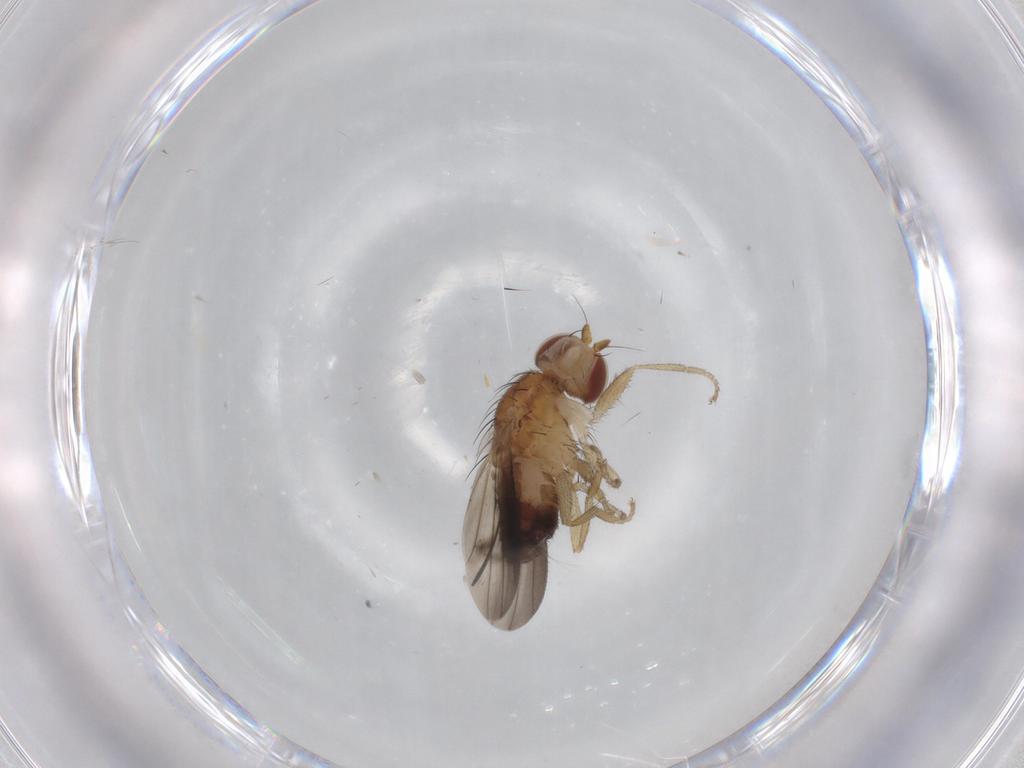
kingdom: Animalia
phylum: Arthropoda
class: Insecta
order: Diptera
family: Heleomyzidae
